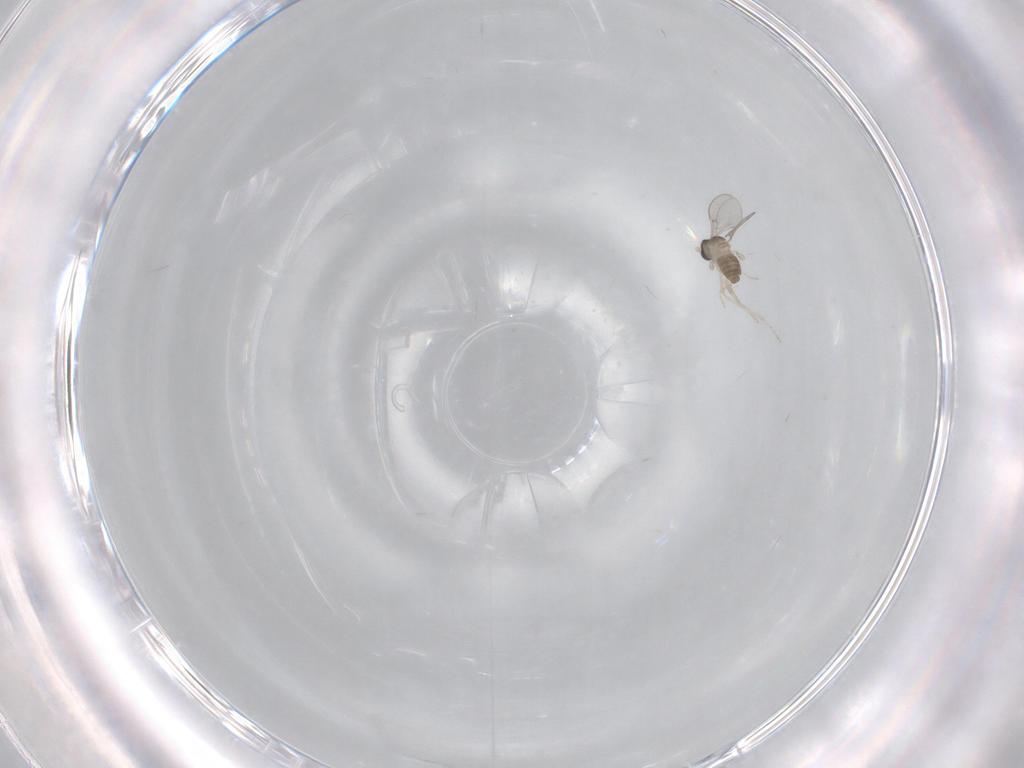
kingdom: Animalia
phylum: Arthropoda
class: Insecta
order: Diptera
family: Cecidomyiidae
